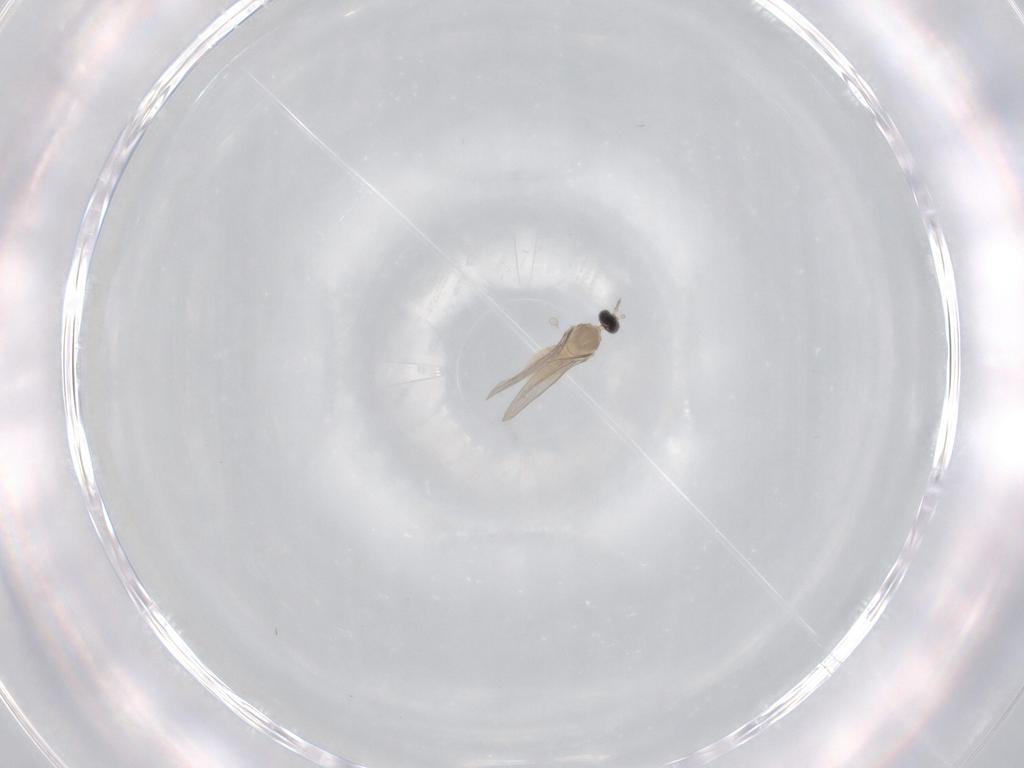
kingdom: Animalia
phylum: Arthropoda
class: Insecta
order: Diptera
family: Cecidomyiidae
